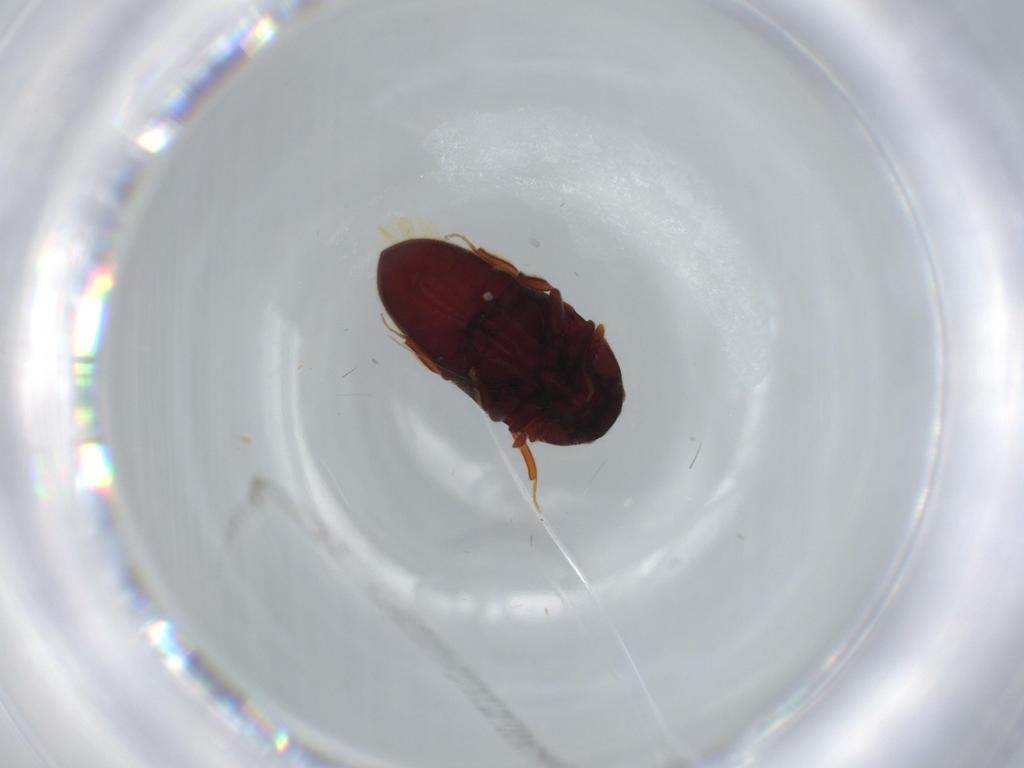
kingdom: Animalia
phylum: Arthropoda
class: Insecta
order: Coleoptera
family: Throscidae
